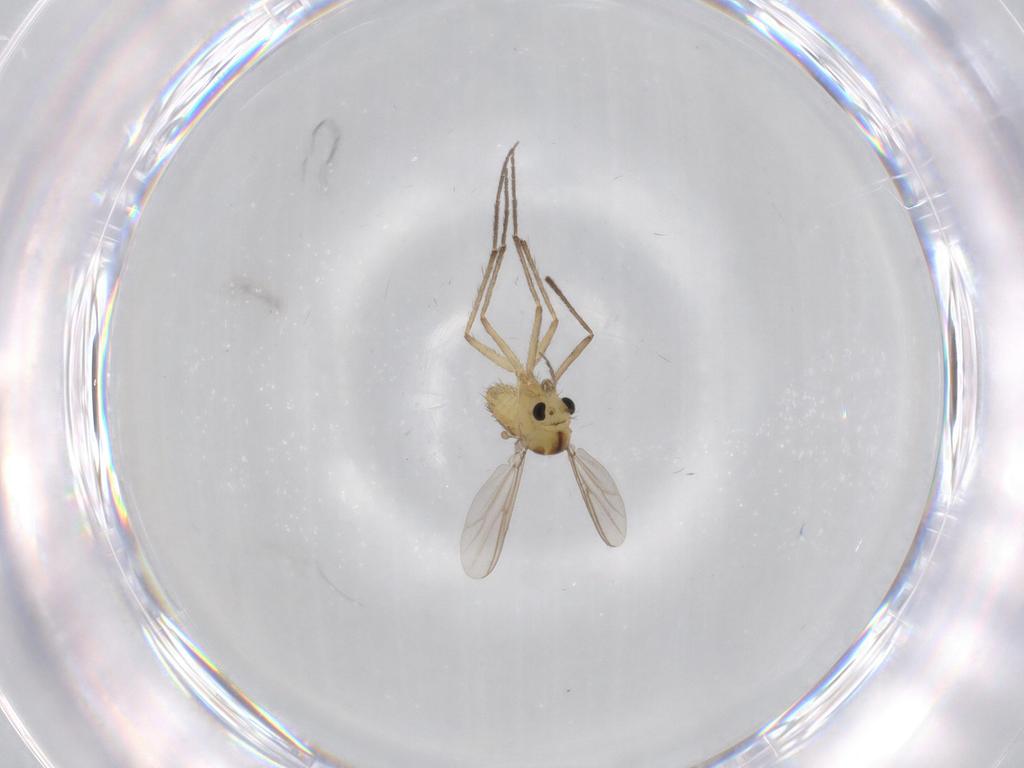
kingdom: Animalia
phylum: Arthropoda
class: Insecta
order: Diptera
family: Chironomidae
